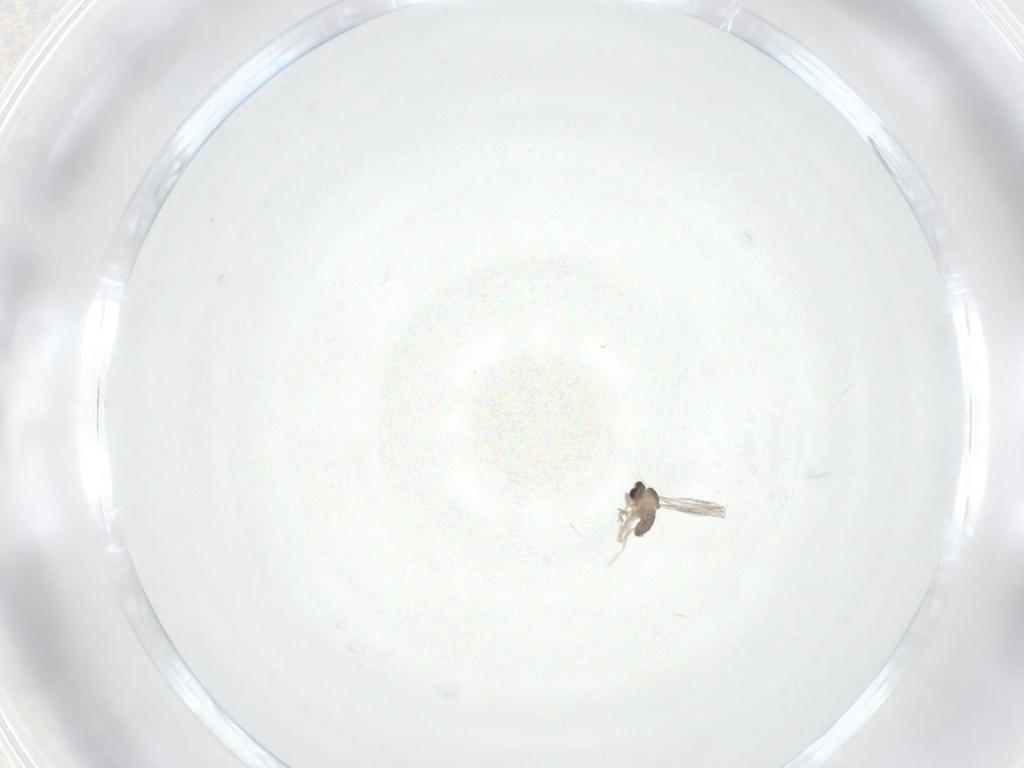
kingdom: Animalia
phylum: Arthropoda
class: Insecta
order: Diptera
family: Cecidomyiidae
